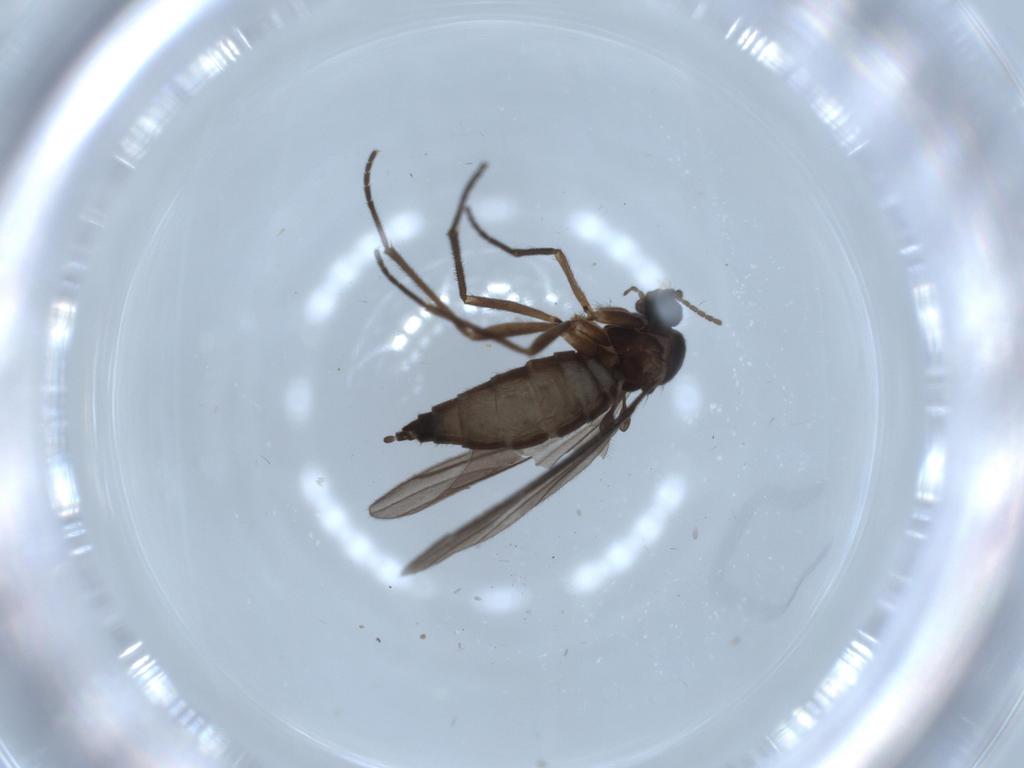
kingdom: Animalia
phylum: Arthropoda
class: Insecta
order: Diptera
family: Sciaridae
